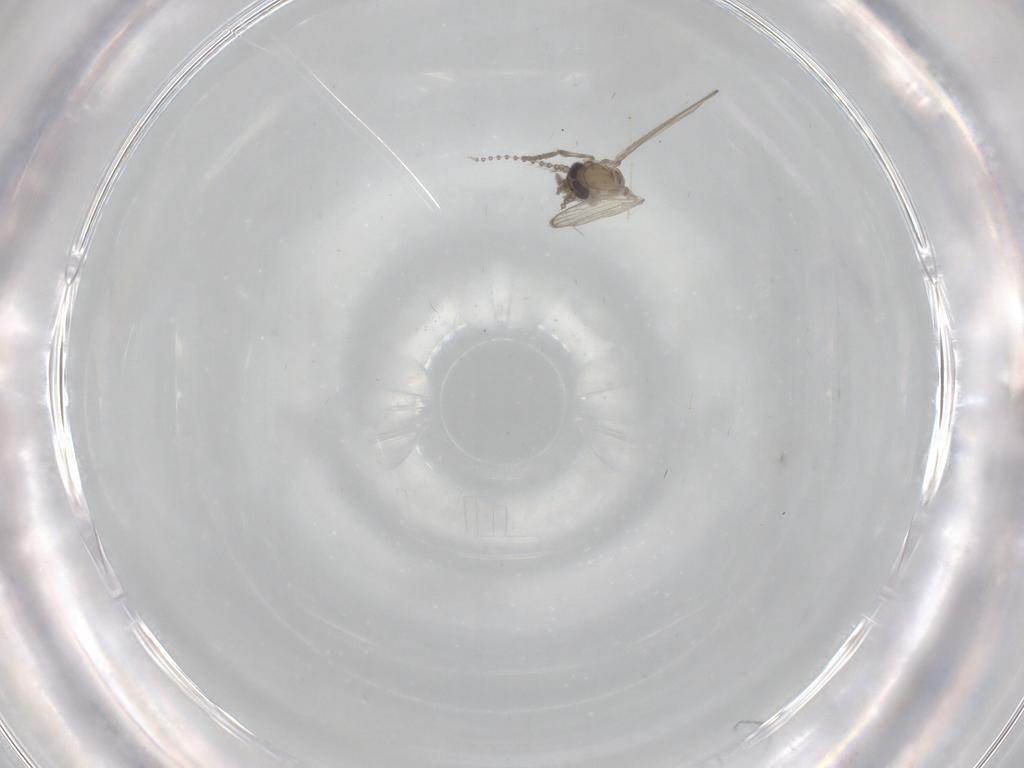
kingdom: Animalia
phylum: Arthropoda
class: Insecta
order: Diptera
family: Psychodidae
